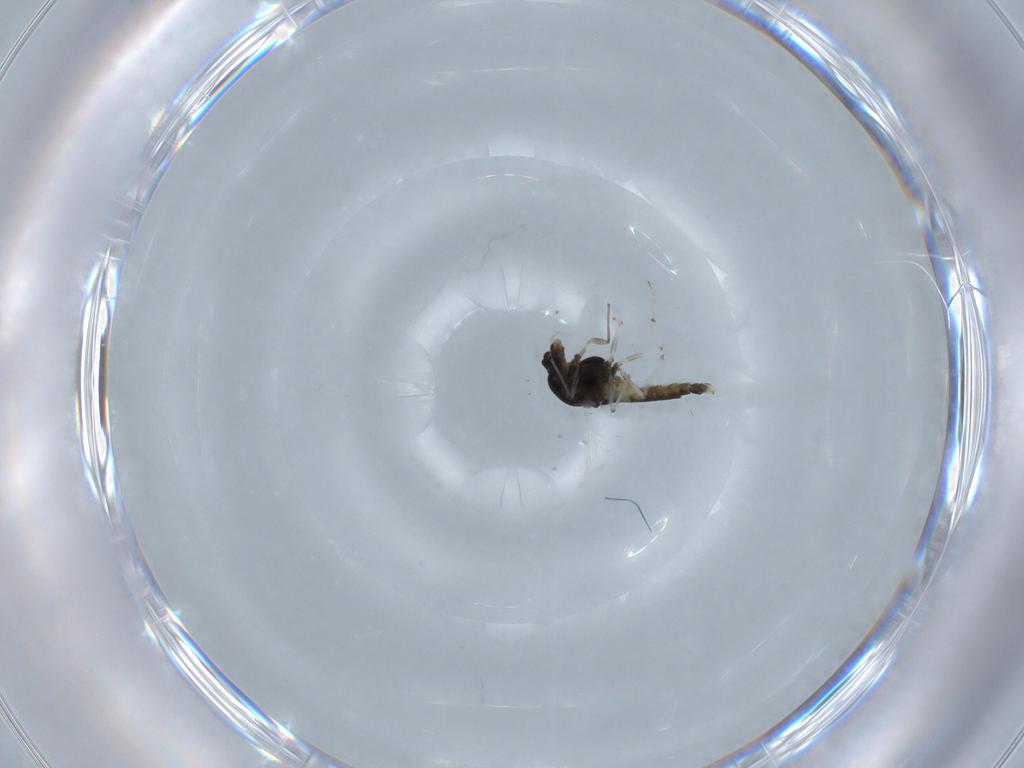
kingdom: Animalia
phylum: Arthropoda
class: Insecta
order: Diptera
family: Chironomidae
